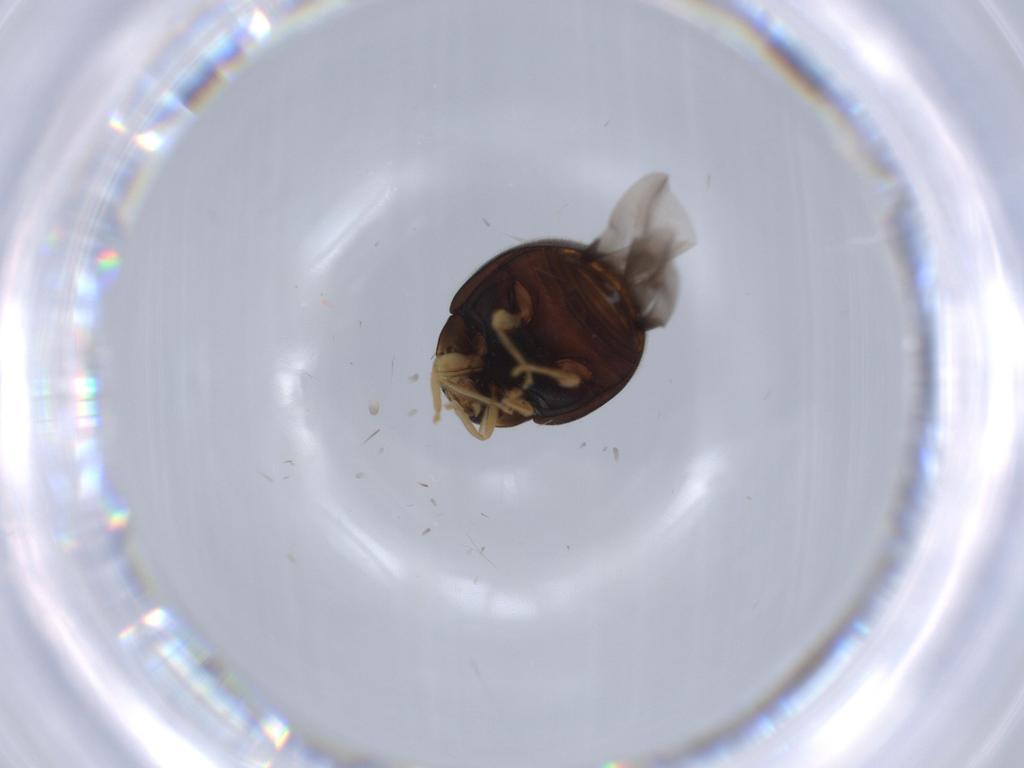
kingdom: Animalia
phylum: Arthropoda
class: Insecta
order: Coleoptera
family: Coccinellidae
